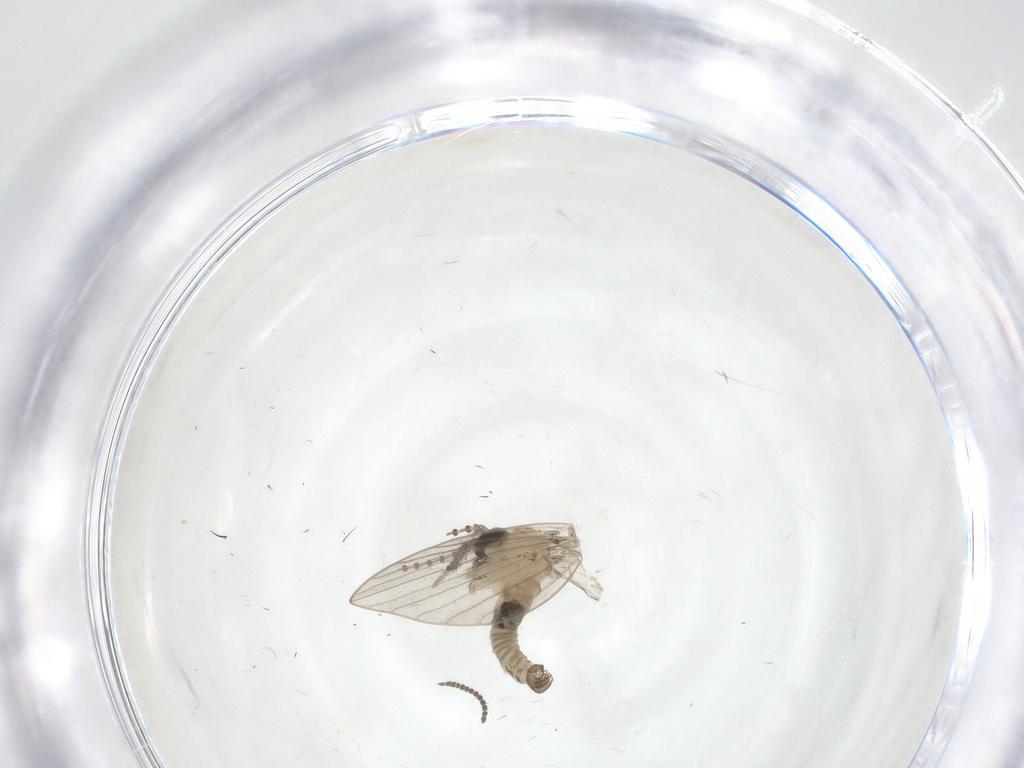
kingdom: Animalia
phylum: Arthropoda
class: Insecta
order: Diptera
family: Psychodidae
